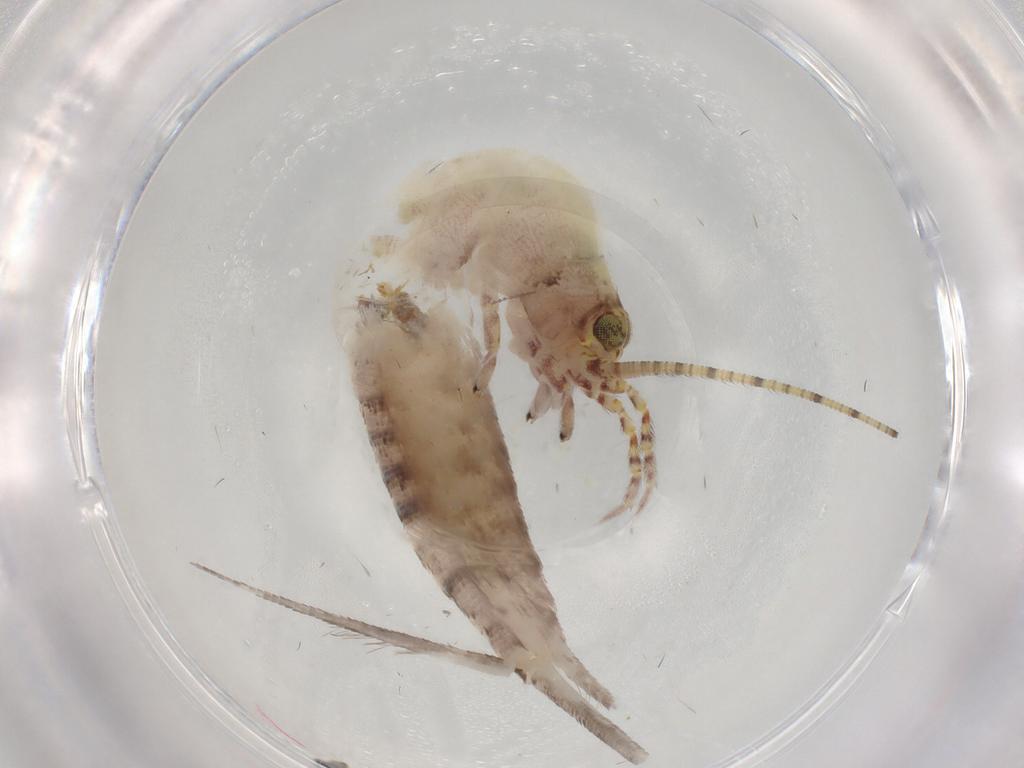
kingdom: Animalia
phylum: Arthropoda
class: Insecta
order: Archaeognatha
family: Machilidae
